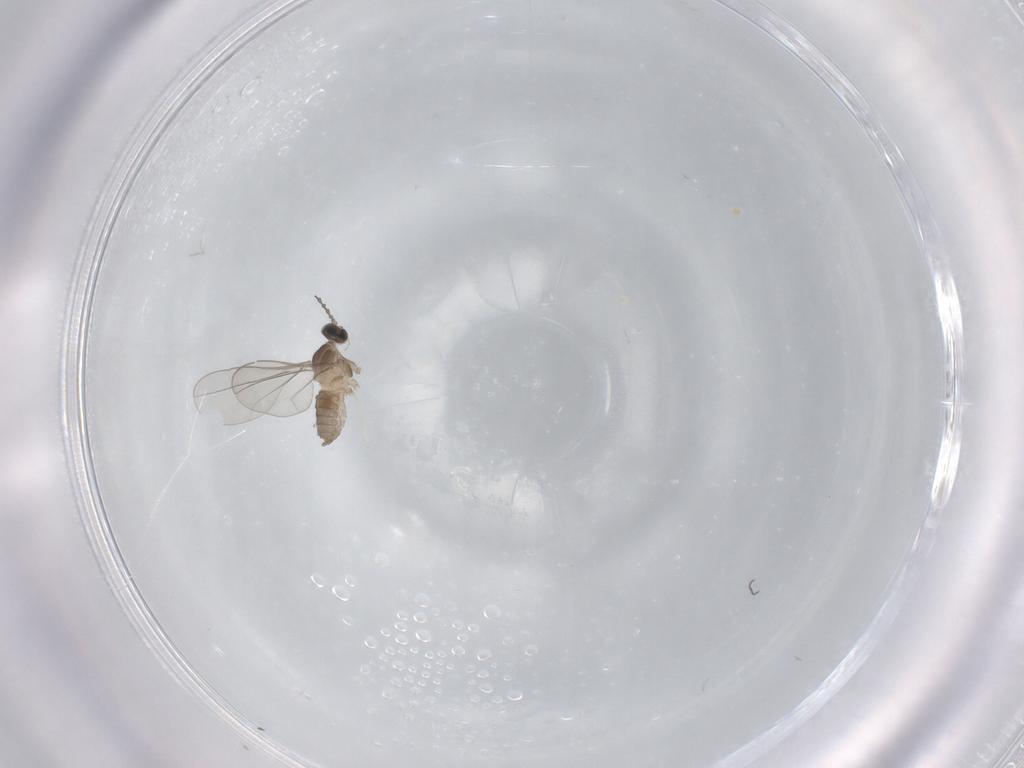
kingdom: Animalia
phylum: Arthropoda
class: Insecta
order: Diptera
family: Cecidomyiidae
